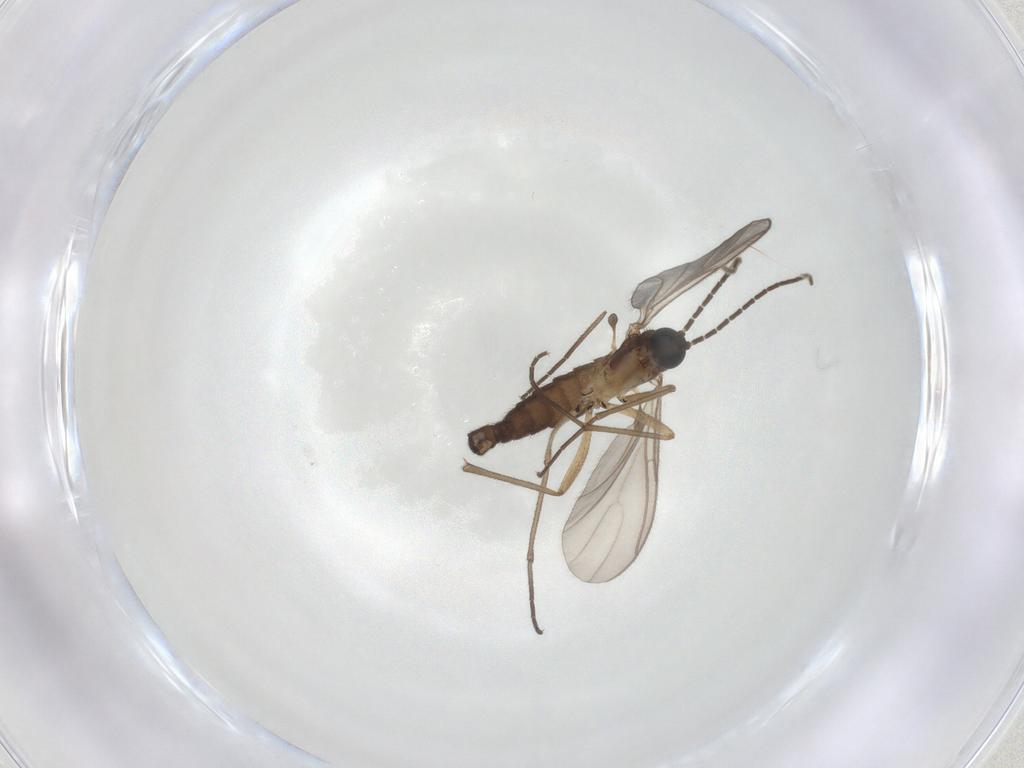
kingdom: Animalia
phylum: Arthropoda
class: Insecta
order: Diptera
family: Sciaridae
